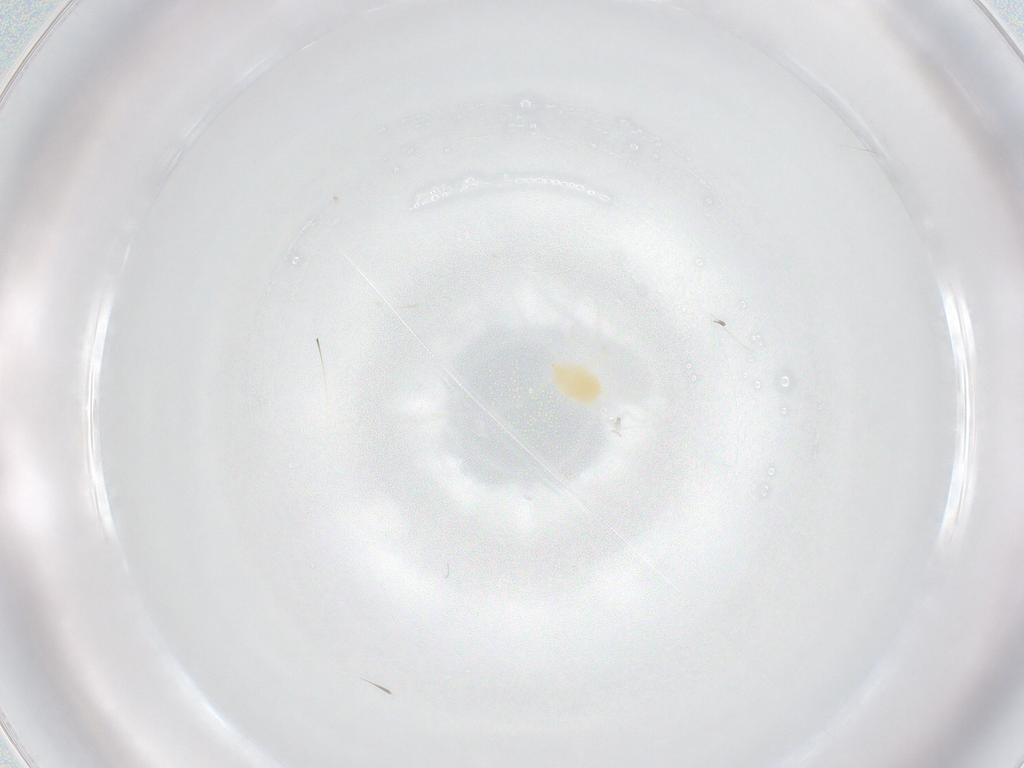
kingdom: Animalia
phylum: Arthropoda
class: Arachnida
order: Trombidiformes
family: Tetranychidae
